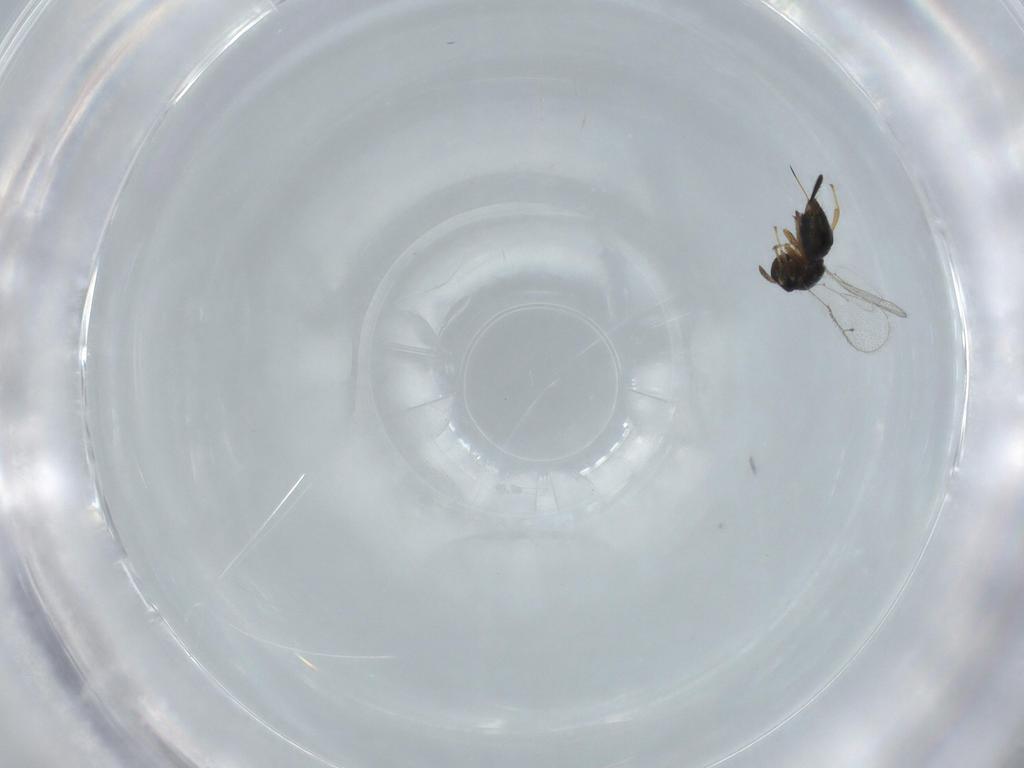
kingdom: Animalia
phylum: Arthropoda
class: Insecta
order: Hymenoptera
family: Torymidae
